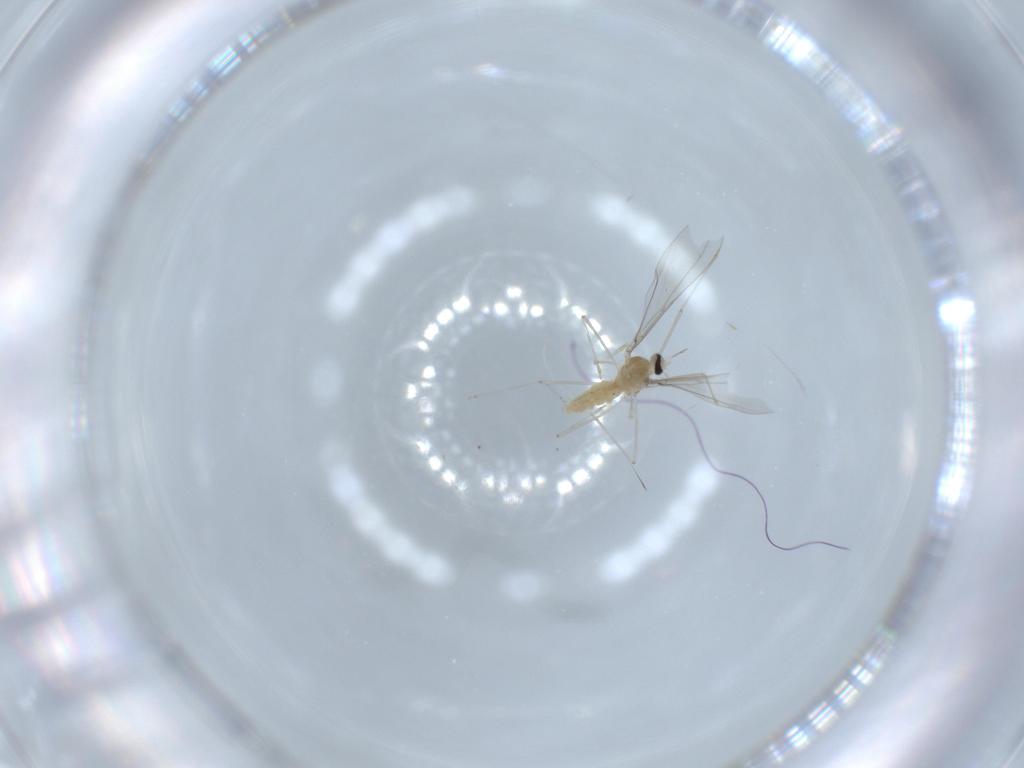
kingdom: Animalia
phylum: Arthropoda
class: Insecta
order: Diptera
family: Cecidomyiidae
